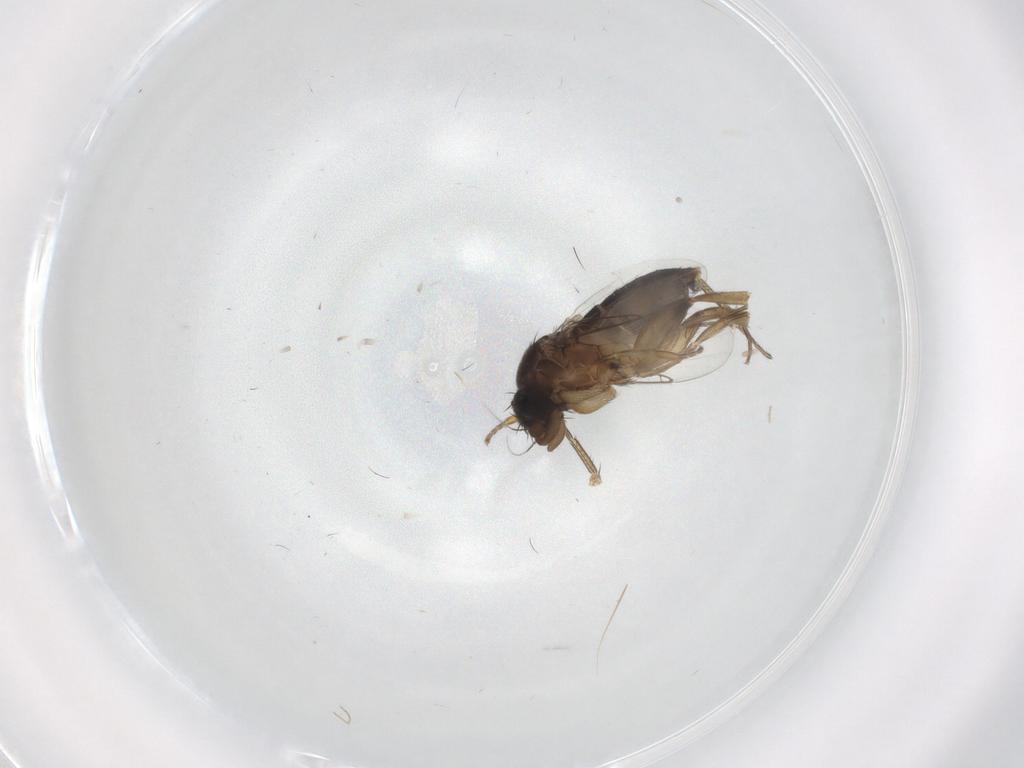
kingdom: Animalia
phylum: Arthropoda
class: Insecta
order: Diptera
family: Phoridae
